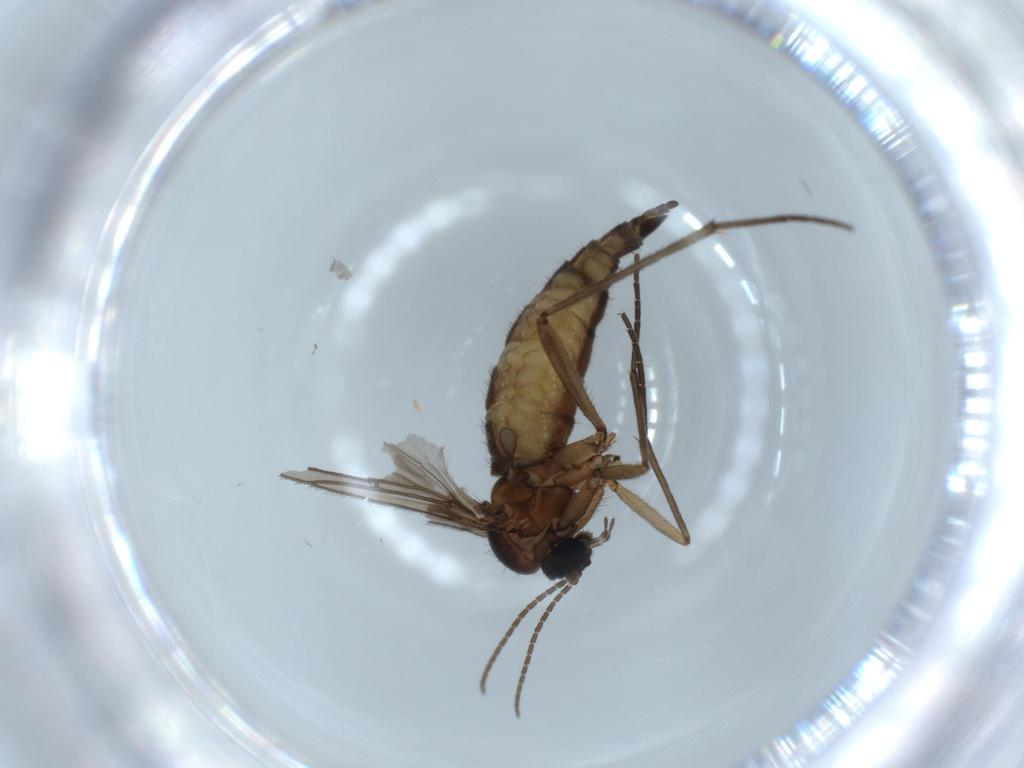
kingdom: Animalia
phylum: Arthropoda
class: Insecta
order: Diptera
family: Sciaridae
